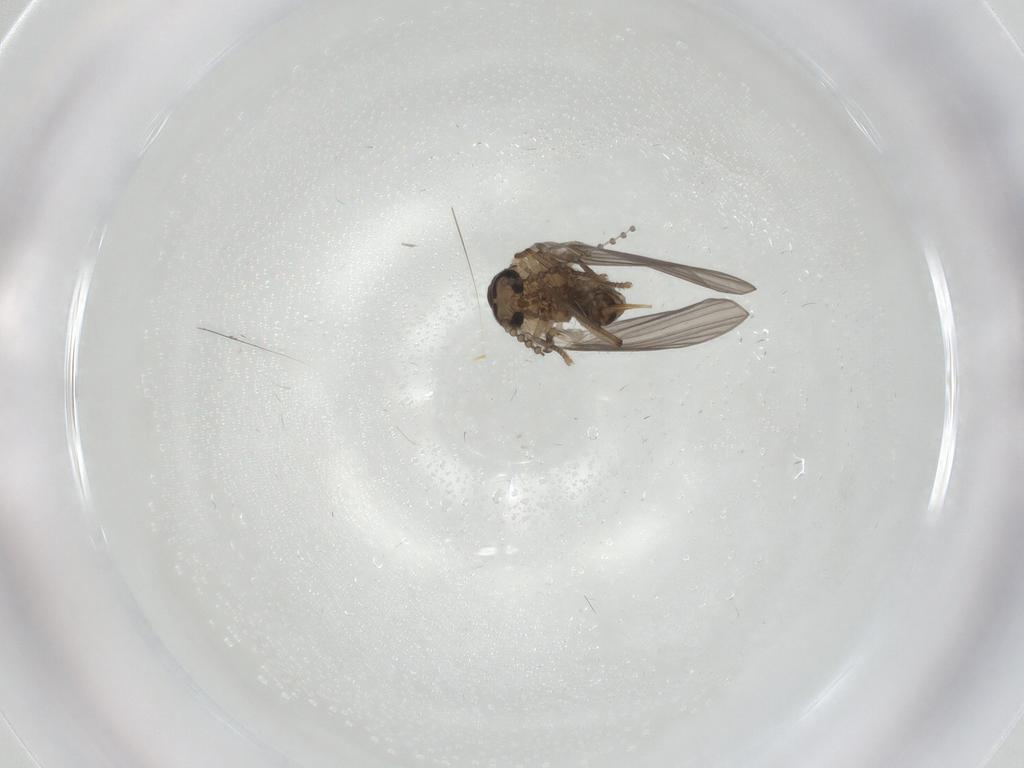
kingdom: Animalia
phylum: Arthropoda
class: Insecta
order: Diptera
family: Psychodidae
